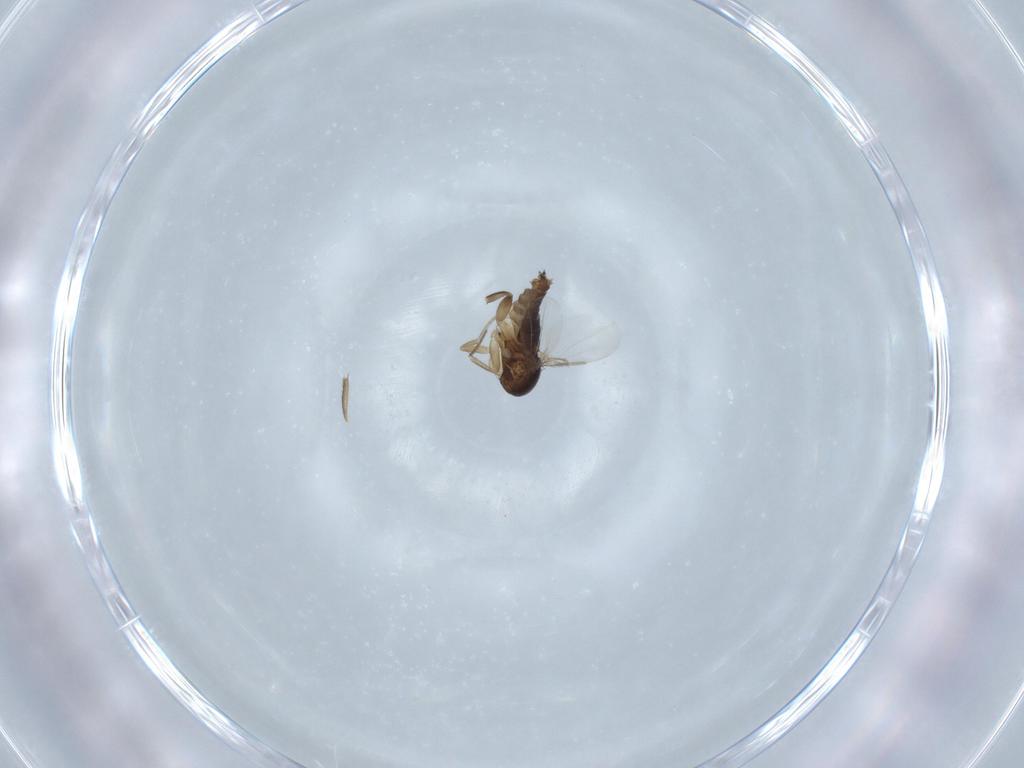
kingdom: Animalia
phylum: Arthropoda
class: Insecta
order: Diptera
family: Phoridae
